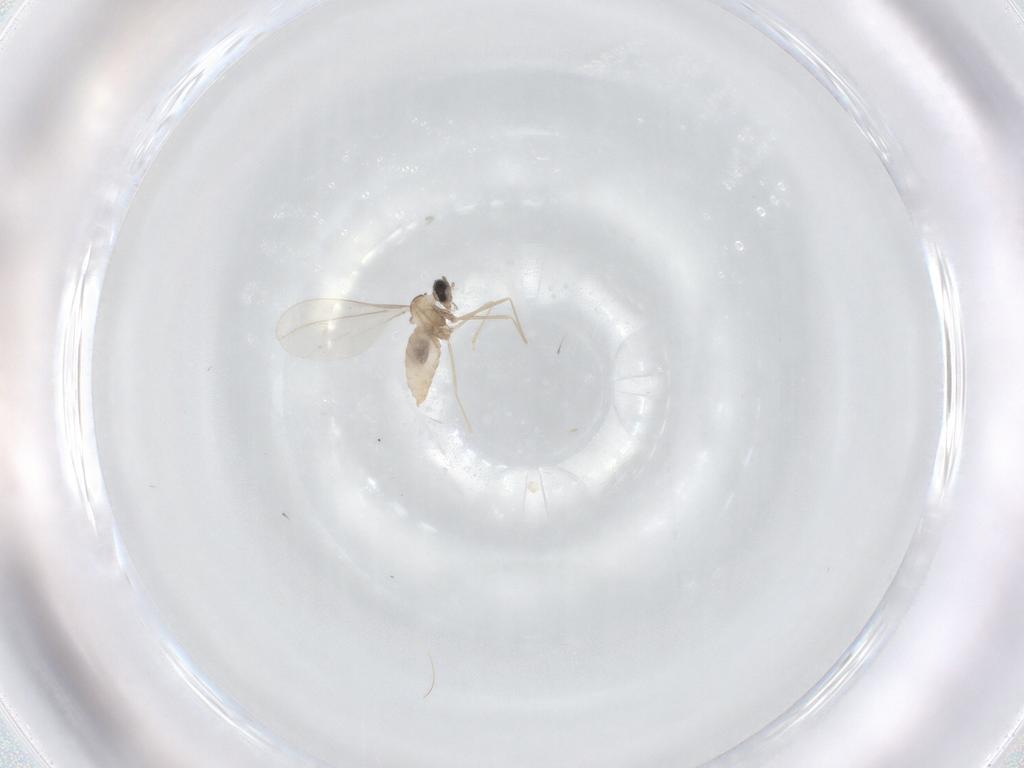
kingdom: Animalia
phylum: Arthropoda
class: Insecta
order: Diptera
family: Cecidomyiidae
